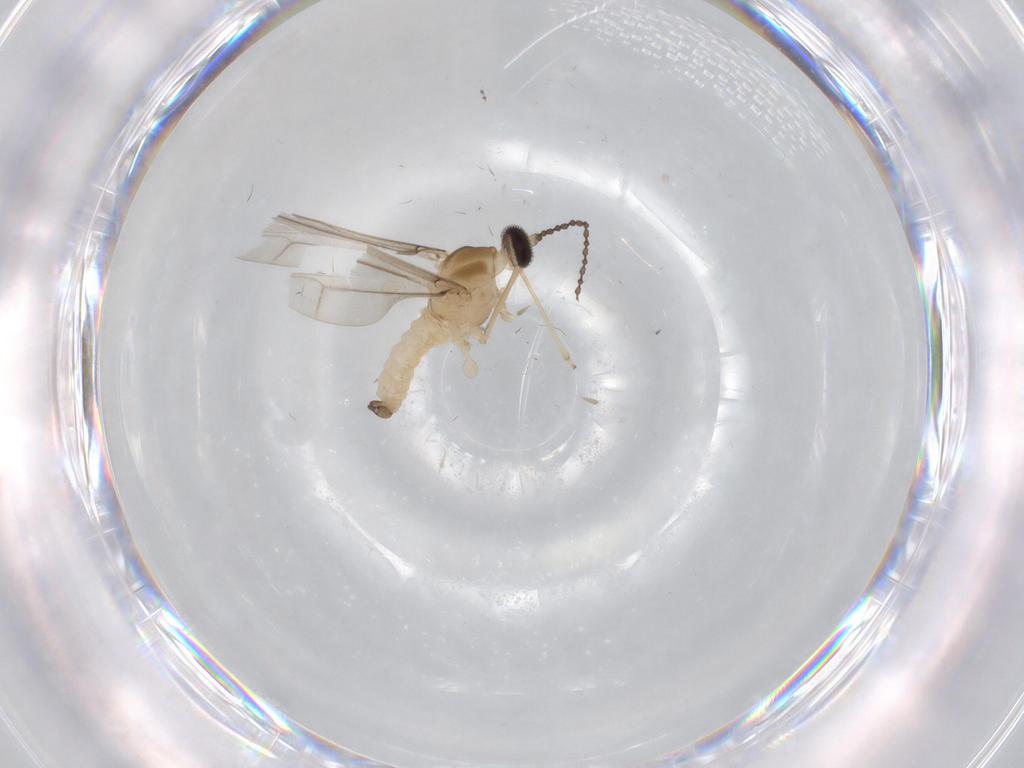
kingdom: Animalia
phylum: Arthropoda
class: Insecta
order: Diptera
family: Cecidomyiidae
